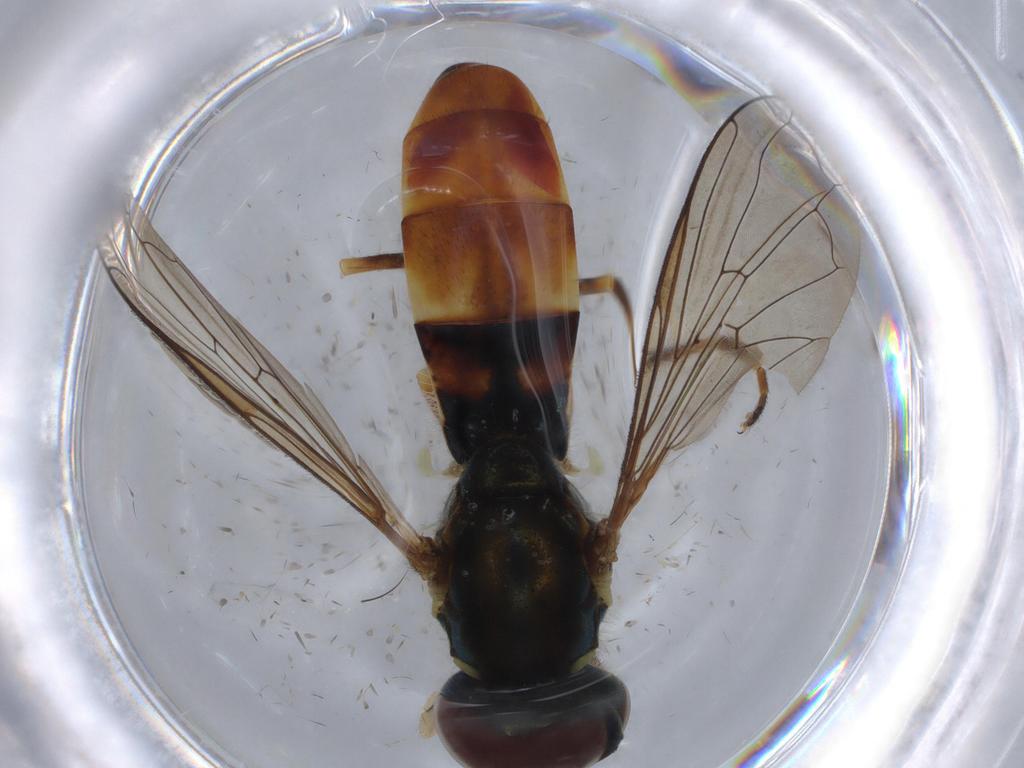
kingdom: Animalia
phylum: Arthropoda
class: Insecta
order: Diptera
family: Syrphidae
